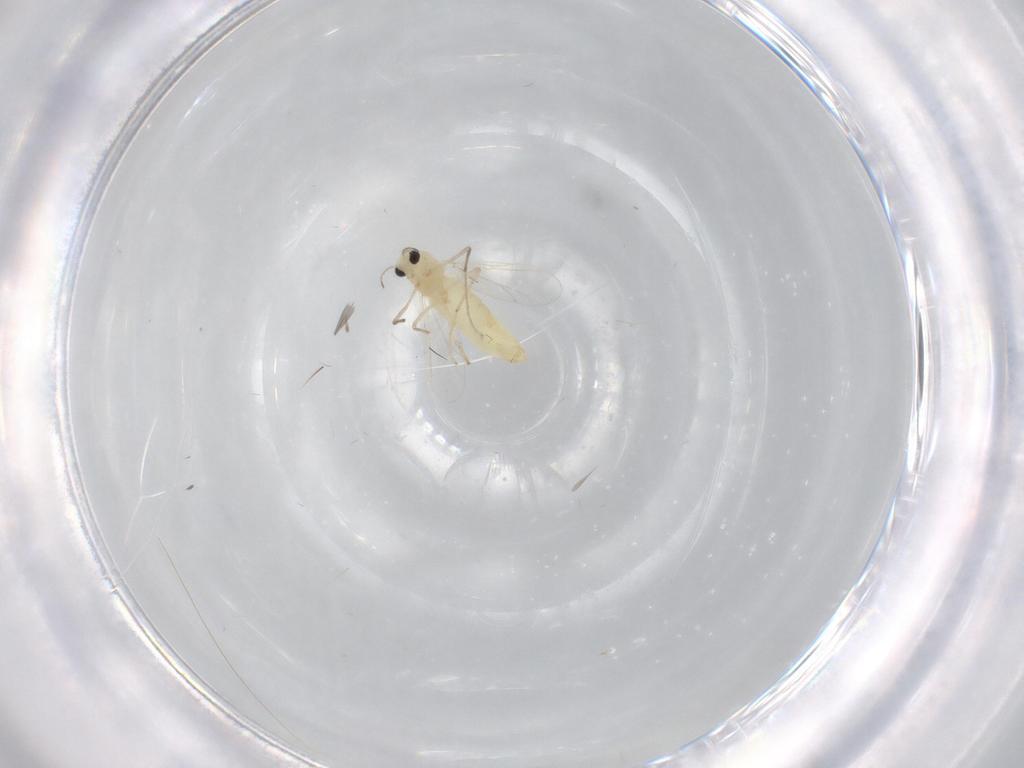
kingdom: Animalia
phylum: Arthropoda
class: Insecta
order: Diptera
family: Chironomidae
